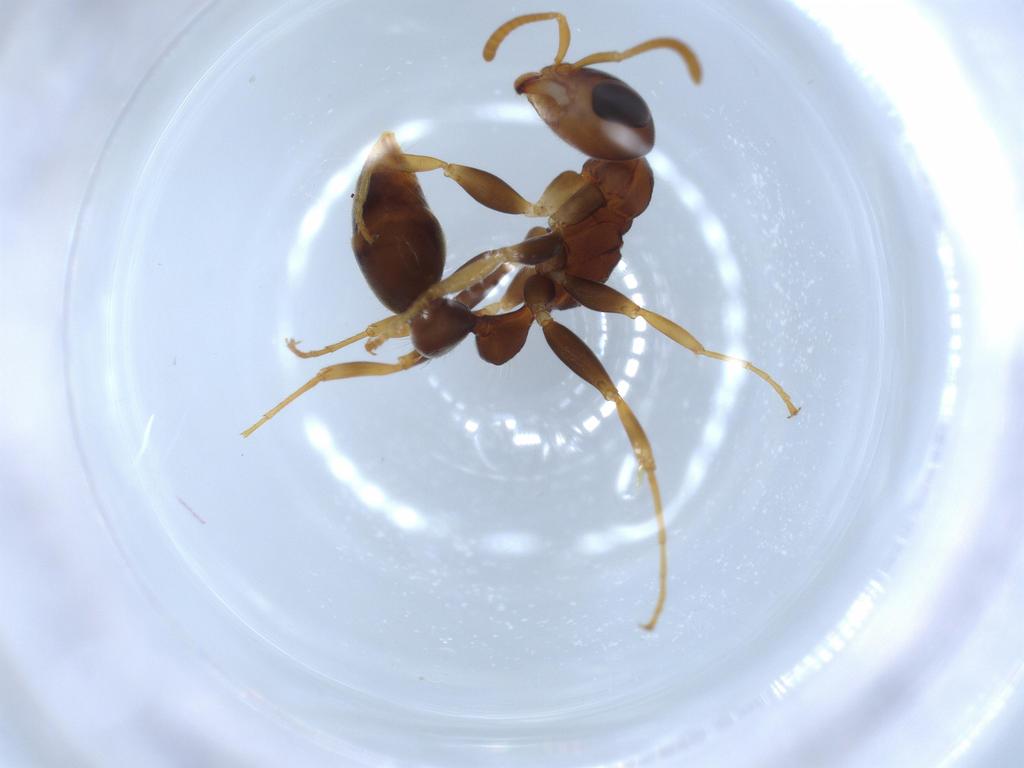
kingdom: Animalia
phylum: Arthropoda
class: Insecta
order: Hymenoptera
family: Formicidae
